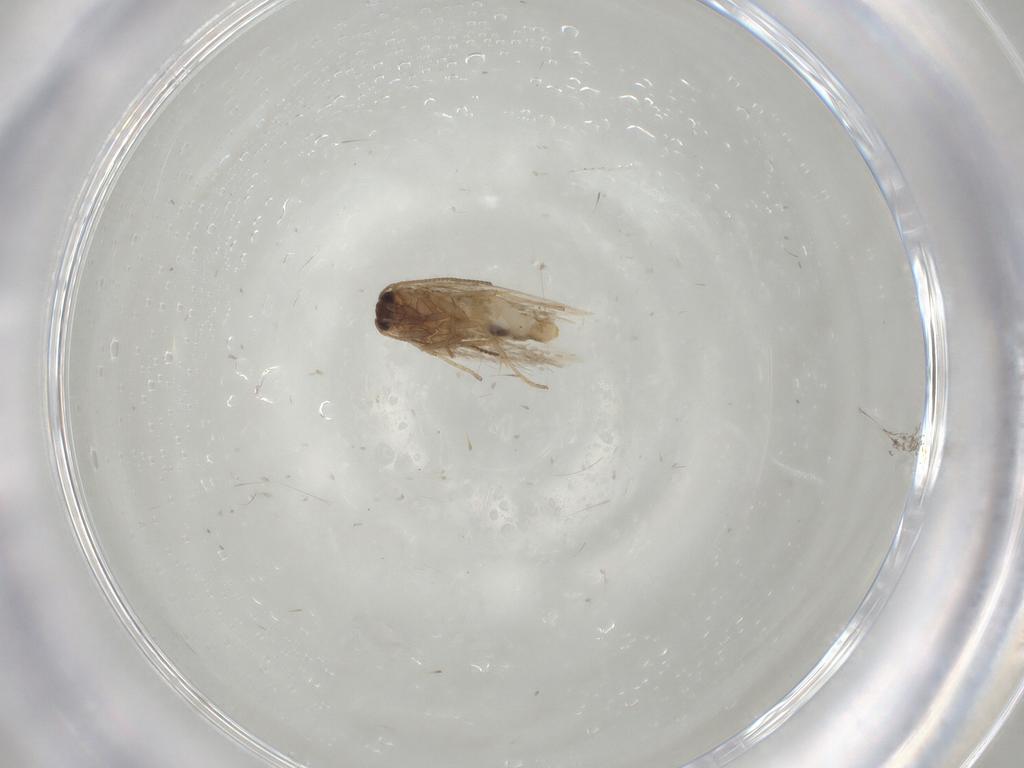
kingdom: Animalia
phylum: Arthropoda
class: Insecta
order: Lepidoptera
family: Nepticulidae
